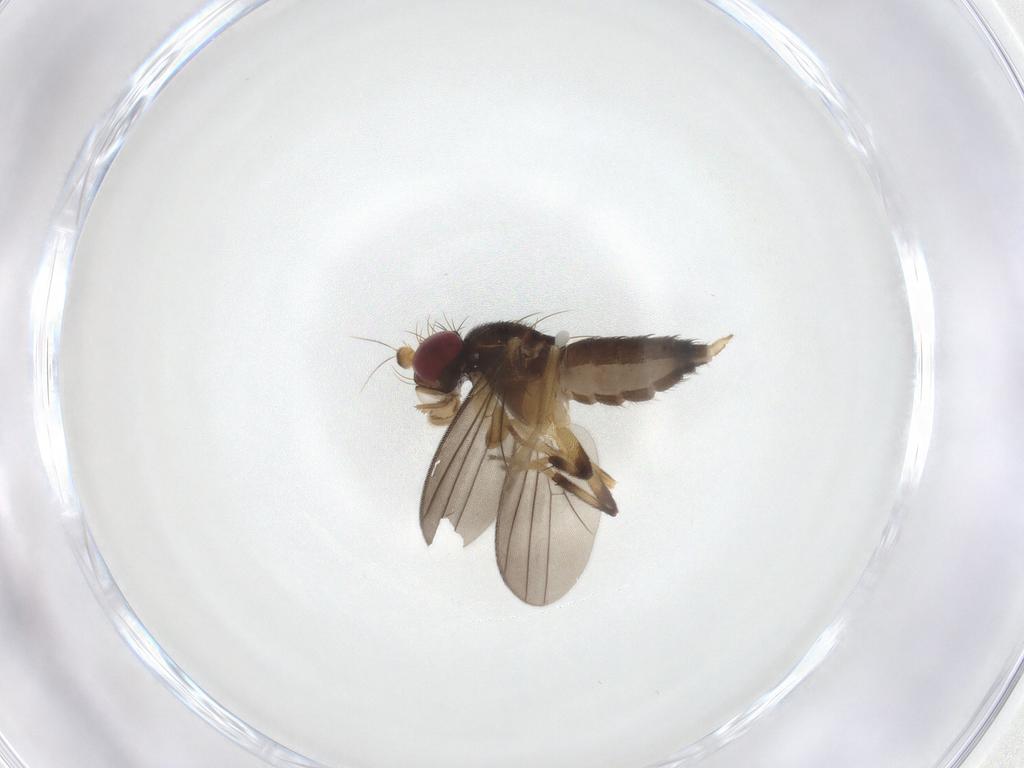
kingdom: Animalia
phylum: Arthropoda
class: Insecta
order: Diptera
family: Clusiidae
